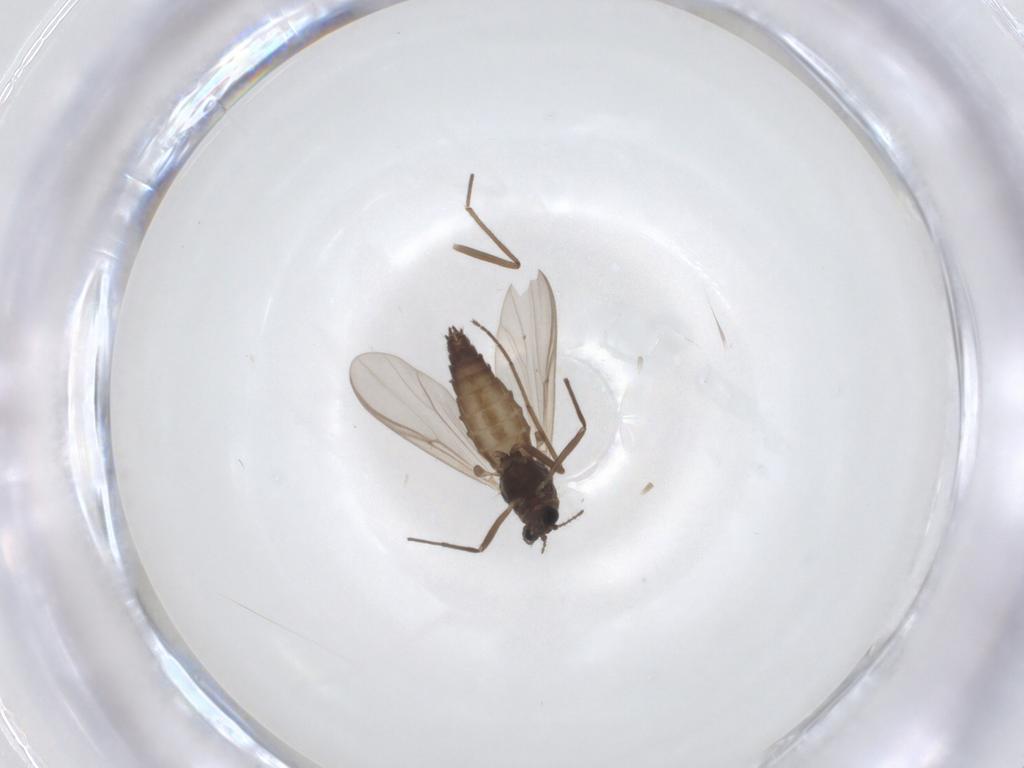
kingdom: Animalia
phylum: Arthropoda
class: Insecta
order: Diptera
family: Chironomidae
